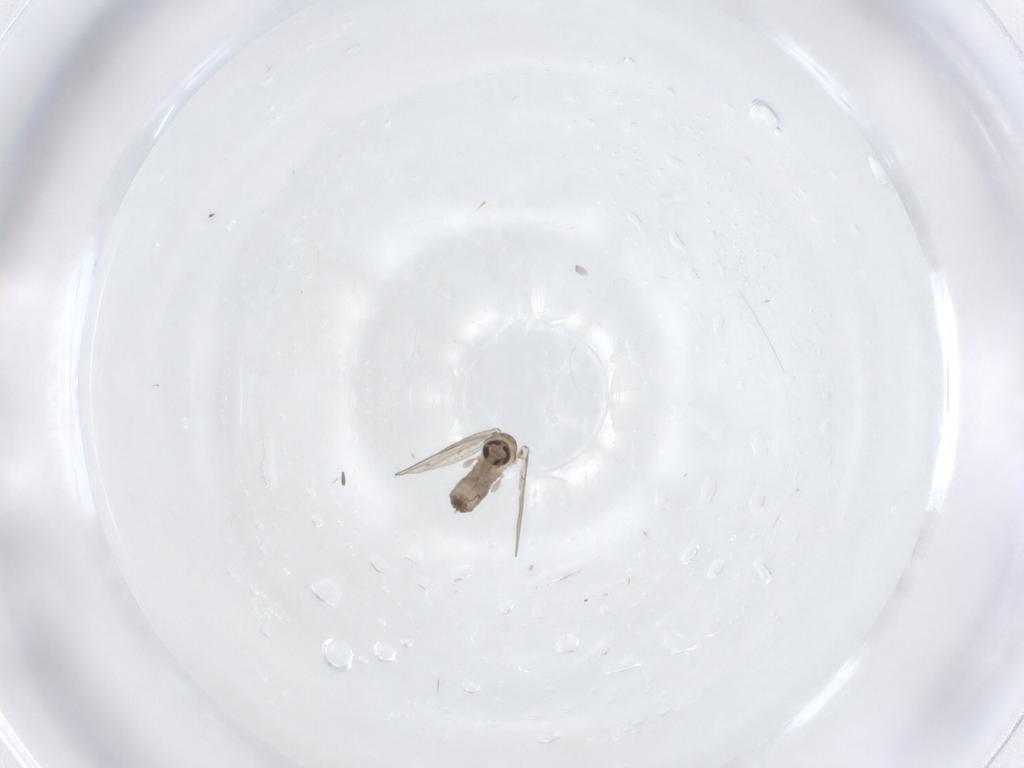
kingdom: Animalia
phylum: Arthropoda
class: Insecta
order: Diptera
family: Psychodidae
